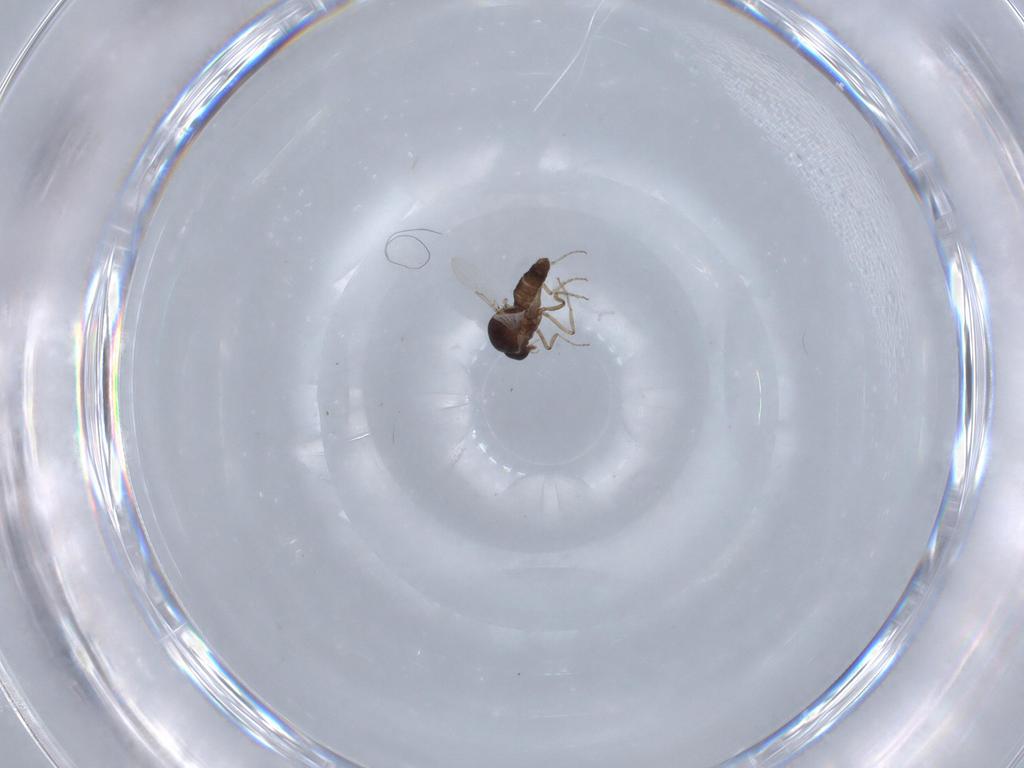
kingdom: Animalia
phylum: Arthropoda
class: Insecta
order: Diptera
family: Ceratopogonidae
